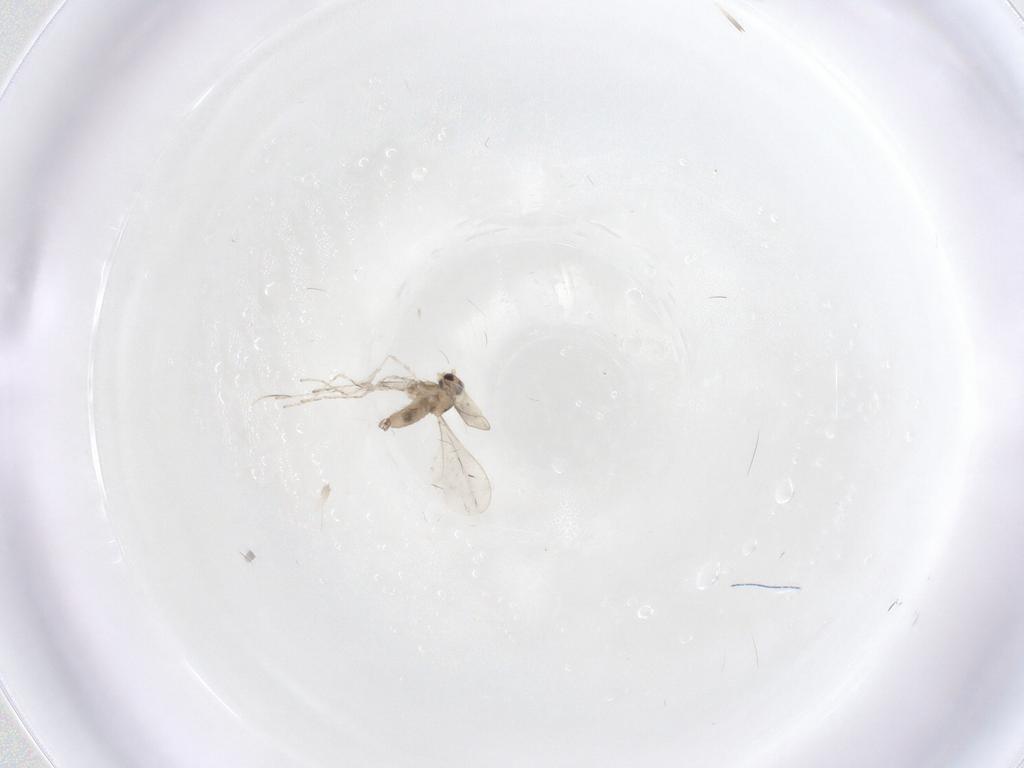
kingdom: Animalia
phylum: Arthropoda
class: Insecta
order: Diptera
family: Cecidomyiidae
